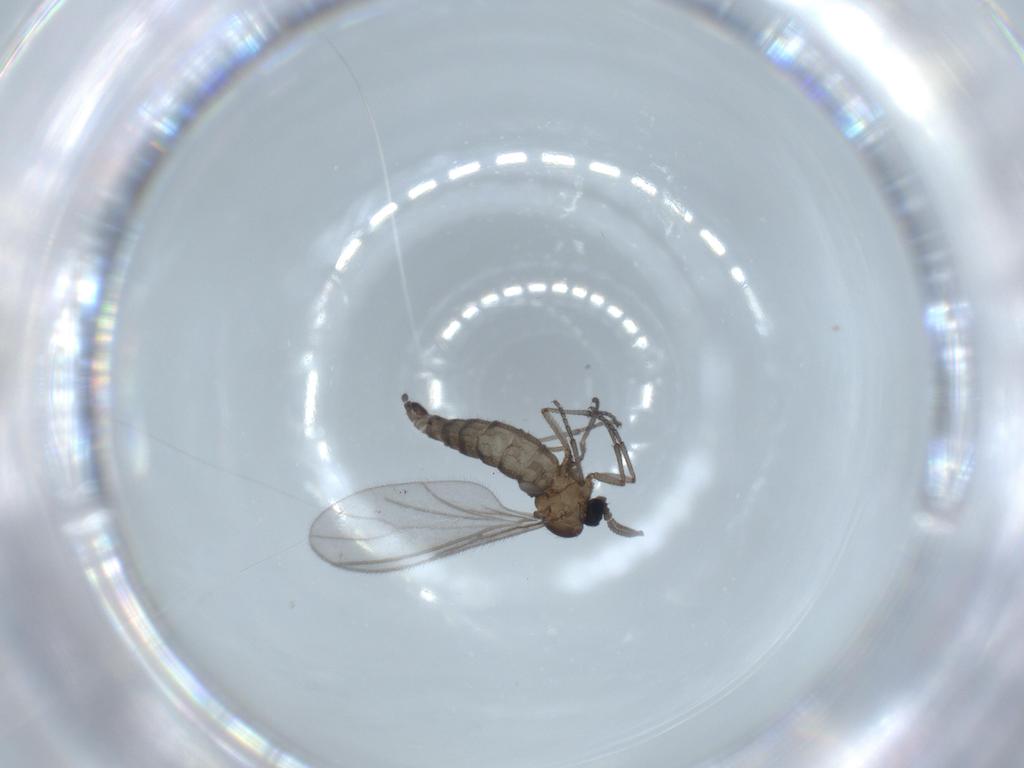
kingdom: Animalia
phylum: Arthropoda
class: Insecta
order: Diptera
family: Sciaridae
